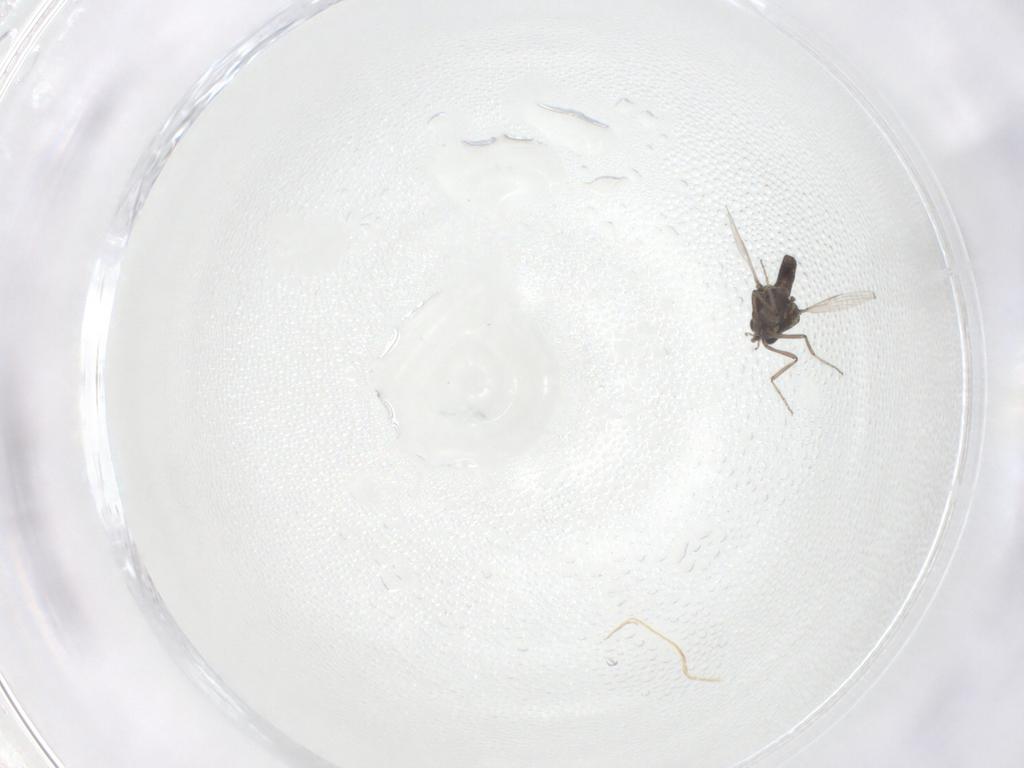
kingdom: Animalia
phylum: Arthropoda
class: Insecta
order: Diptera
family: Ceratopogonidae
